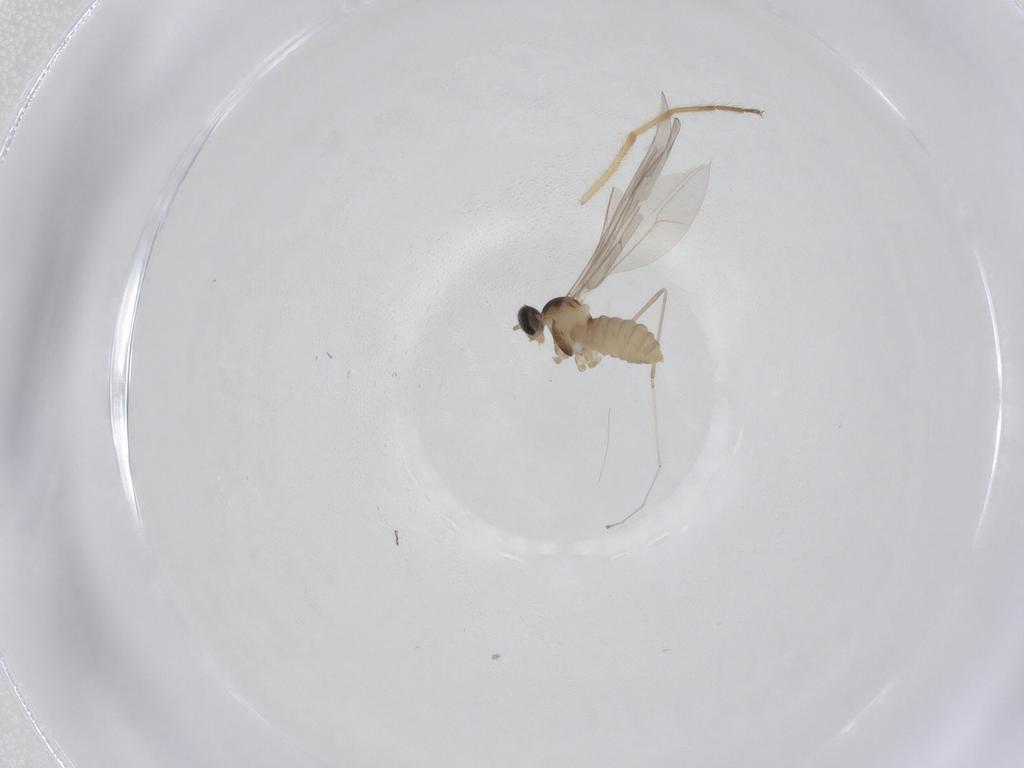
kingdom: Animalia
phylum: Arthropoda
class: Insecta
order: Diptera
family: Cecidomyiidae
